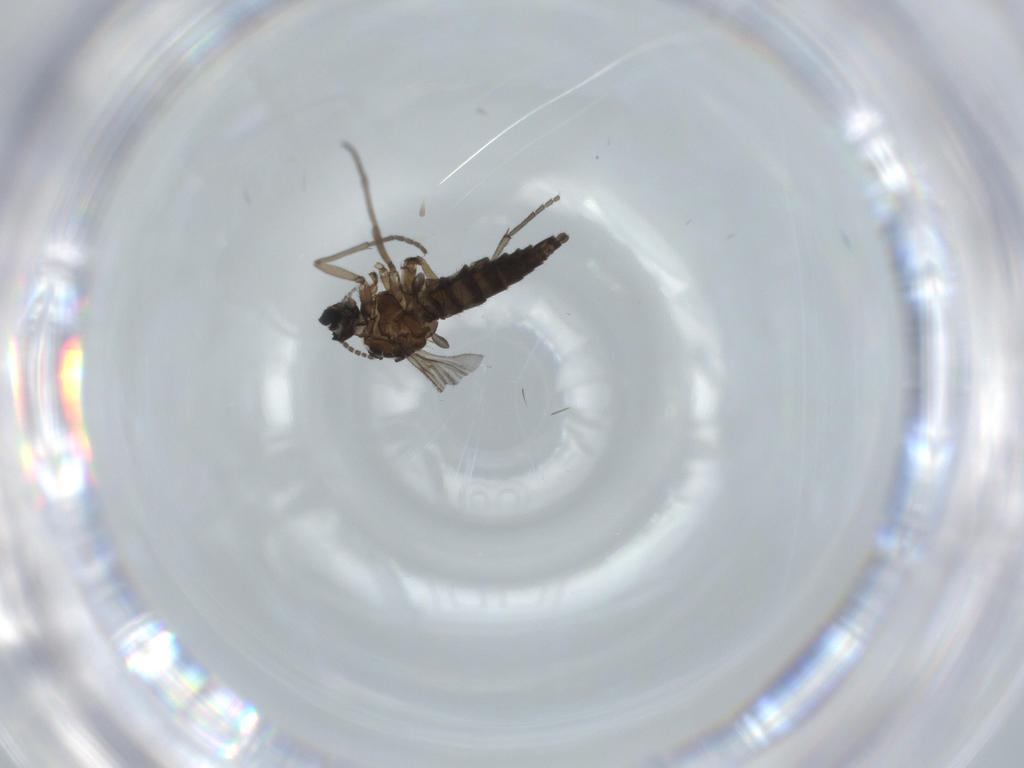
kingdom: Animalia
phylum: Arthropoda
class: Insecta
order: Diptera
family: Sciaridae
